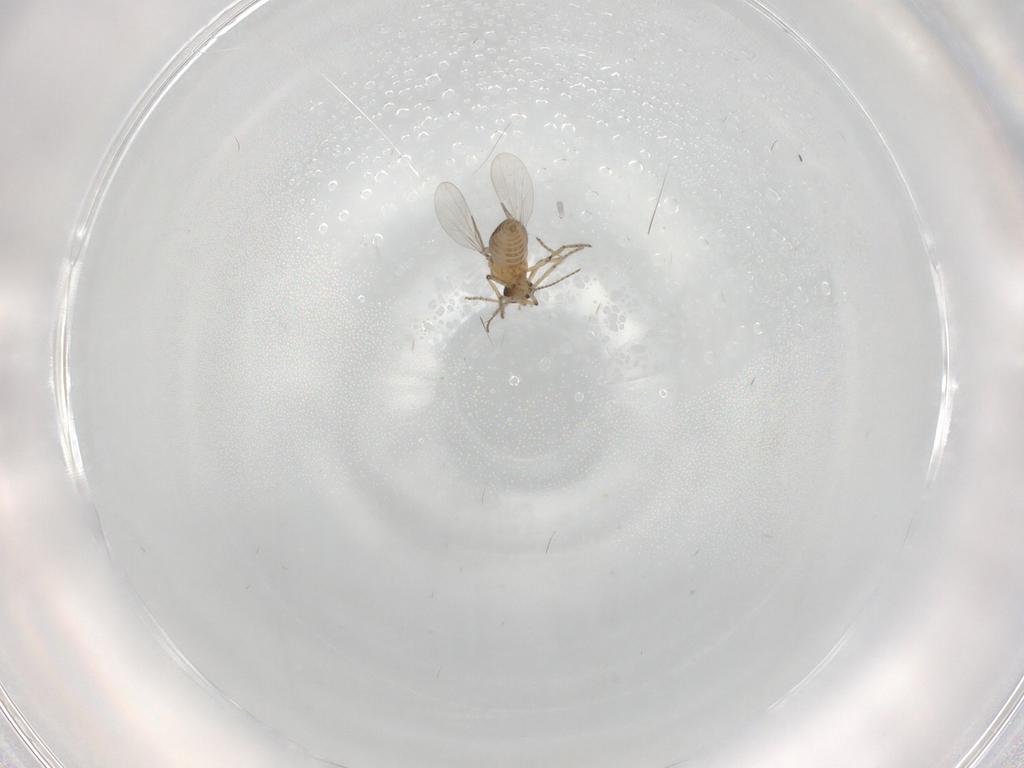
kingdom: Animalia
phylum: Arthropoda
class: Insecta
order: Diptera
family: Ceratopogonidae
